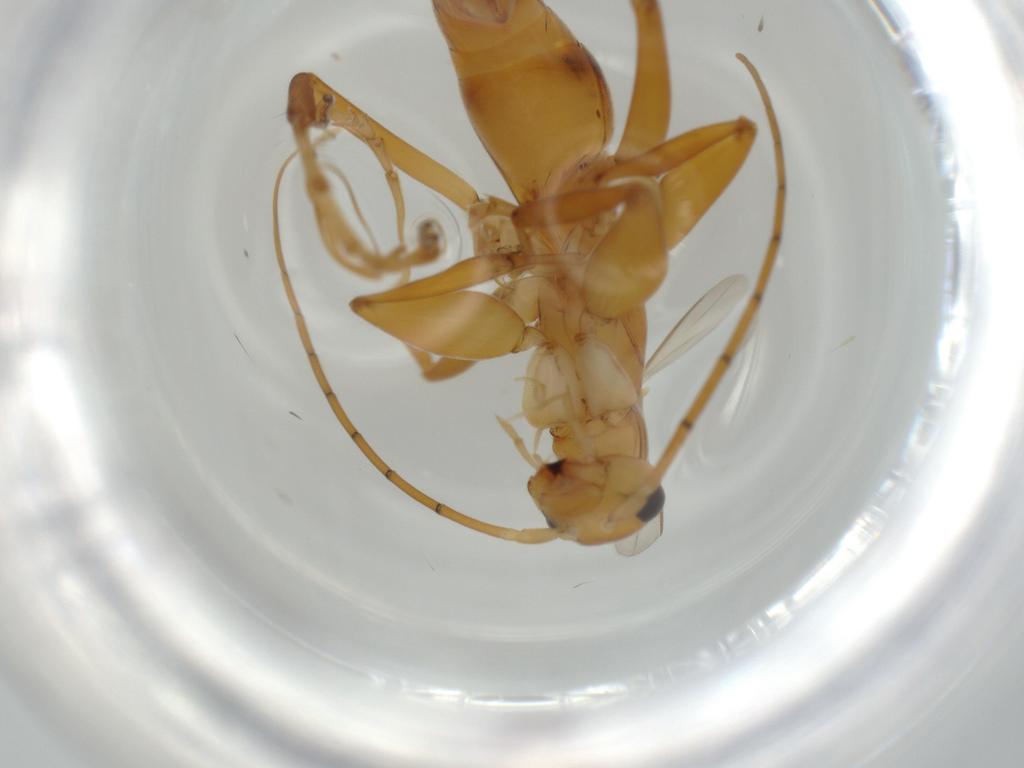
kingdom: Animalia
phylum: Arthropoda
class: Insecta
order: Hymenoptera
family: Rhopalosomatidae
